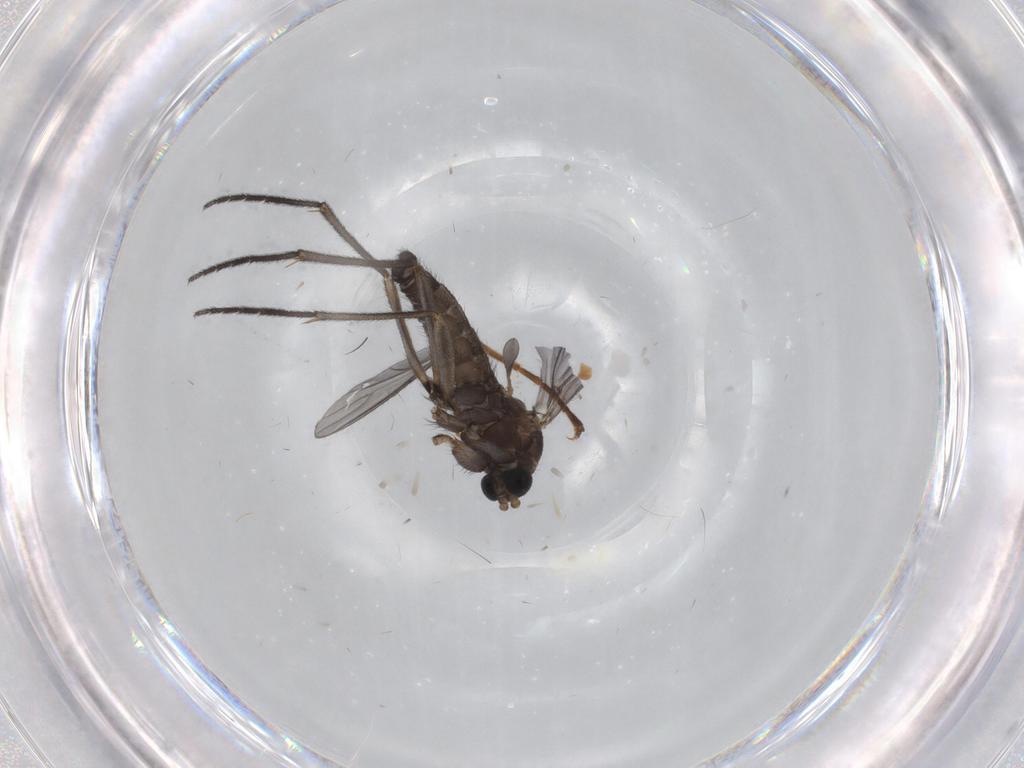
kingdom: Animalia
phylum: Arthropoda
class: Insecta
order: Diptera
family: Sciaridae
